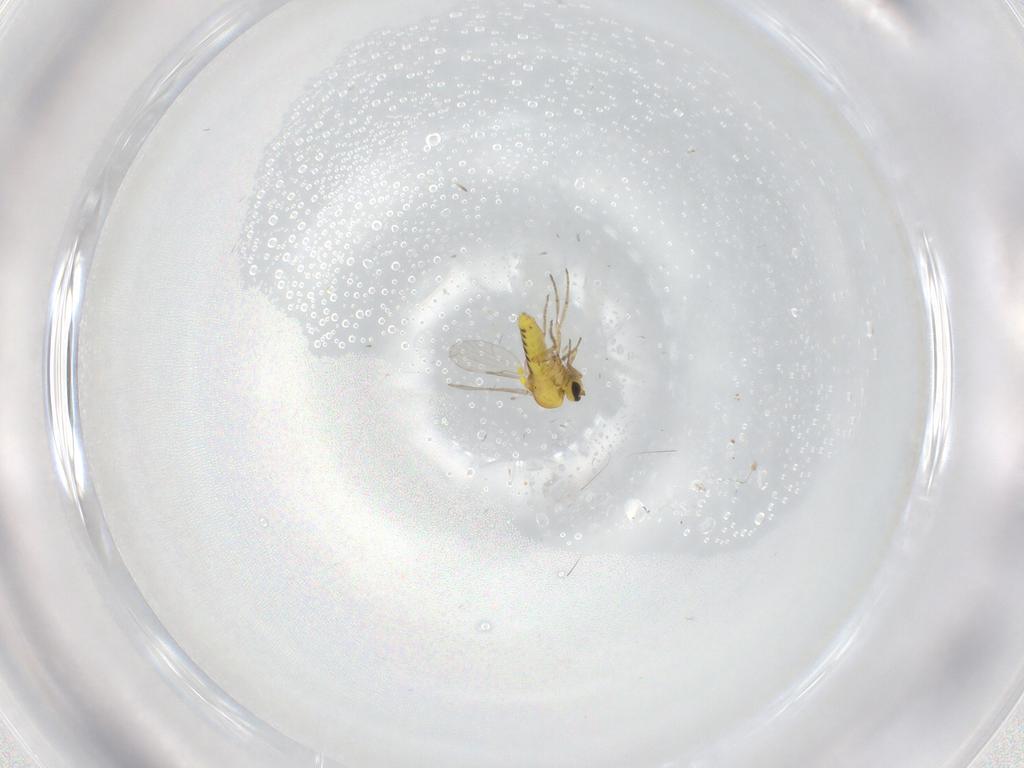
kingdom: Animalia
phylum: Arthropoda
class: Insecta
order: Diptera
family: Ceratopogonidae
